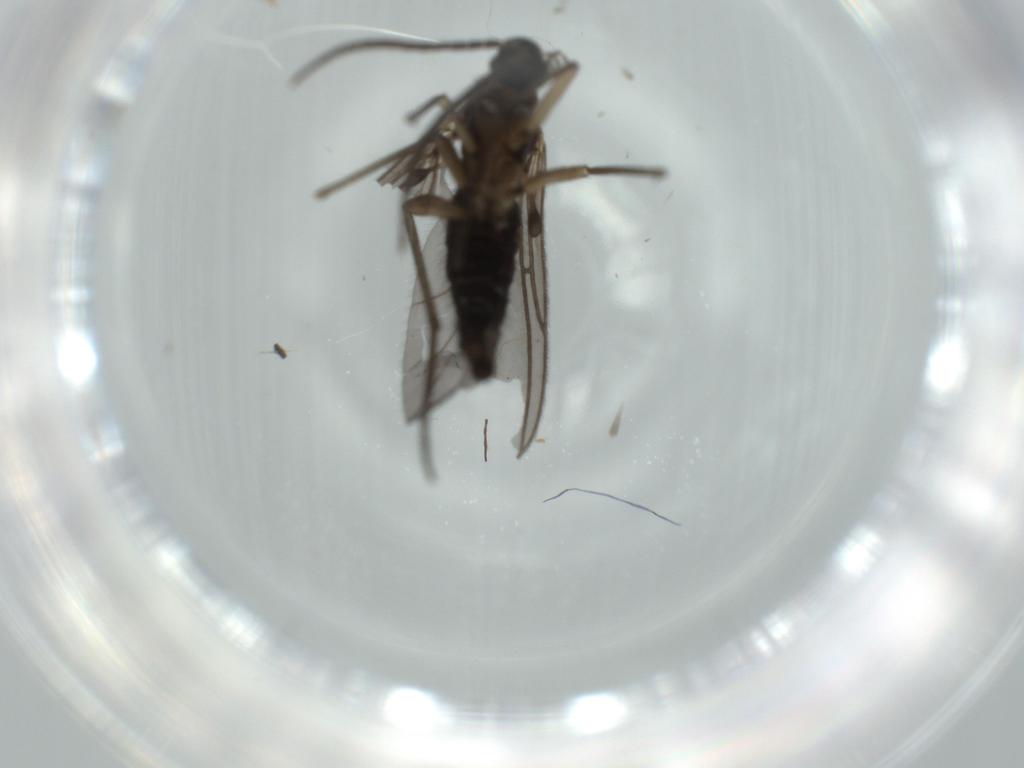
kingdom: Animalia
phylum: Arthropoda
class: Insecta
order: Diptera
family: Sciaridae
